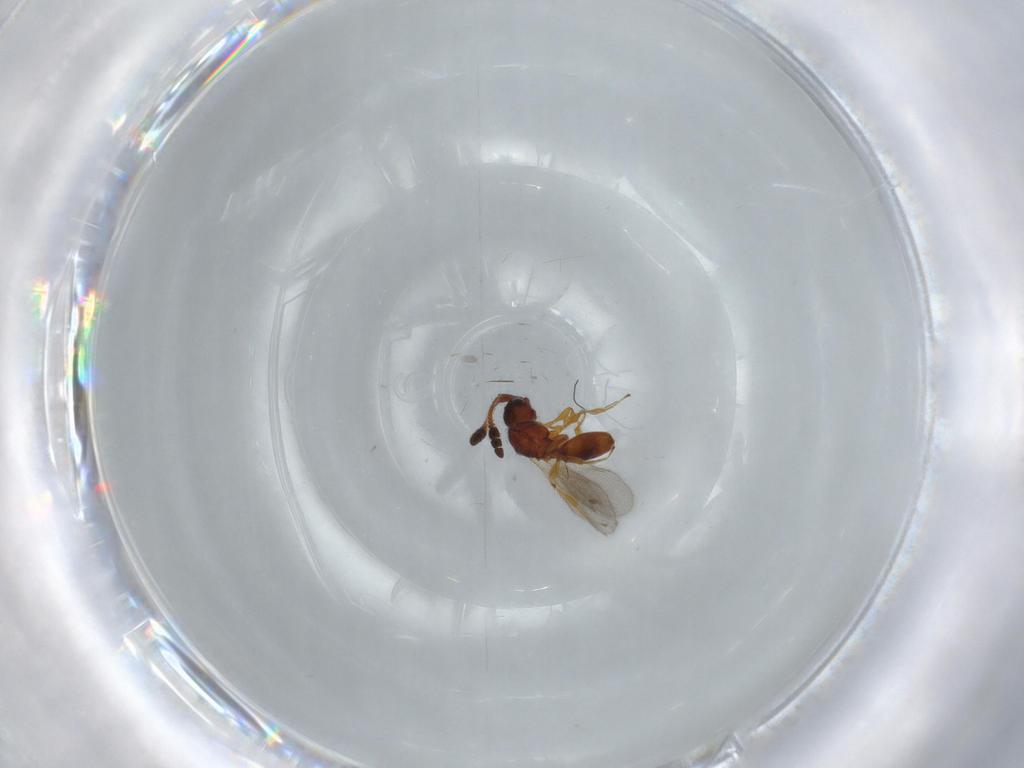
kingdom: Animalia
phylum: Arthropoda
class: Insecta
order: Hymenoptera
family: Diapriidae
